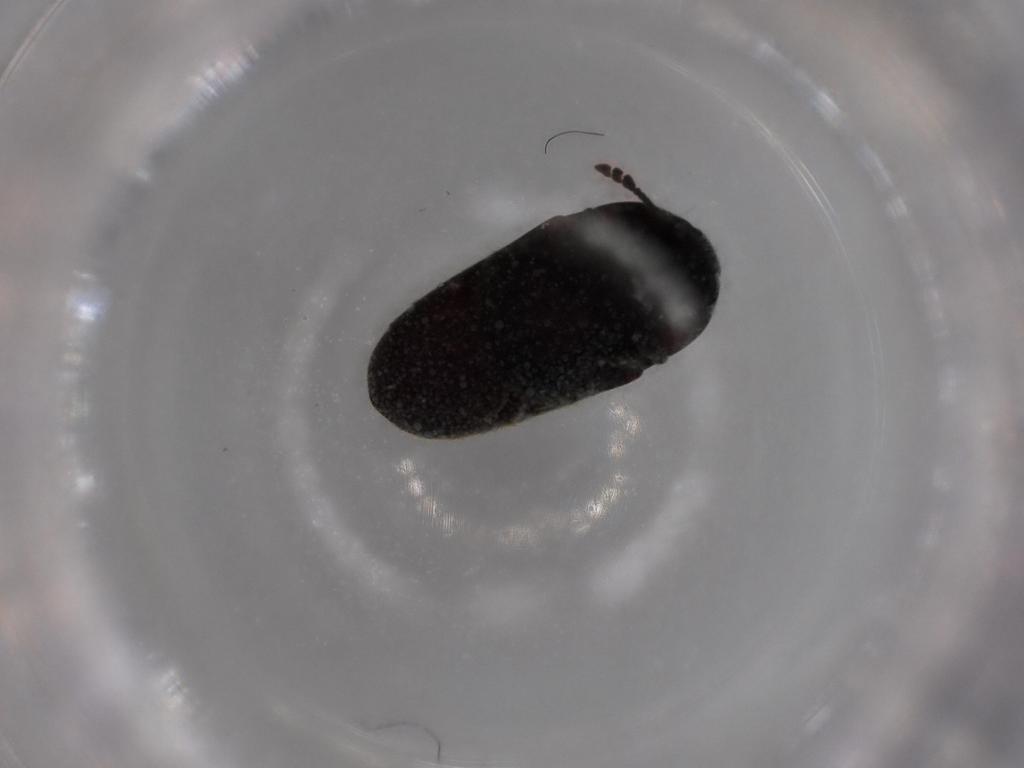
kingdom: Animalia
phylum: Arthropoda
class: Insecta
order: Coleoptera
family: Throscidae
